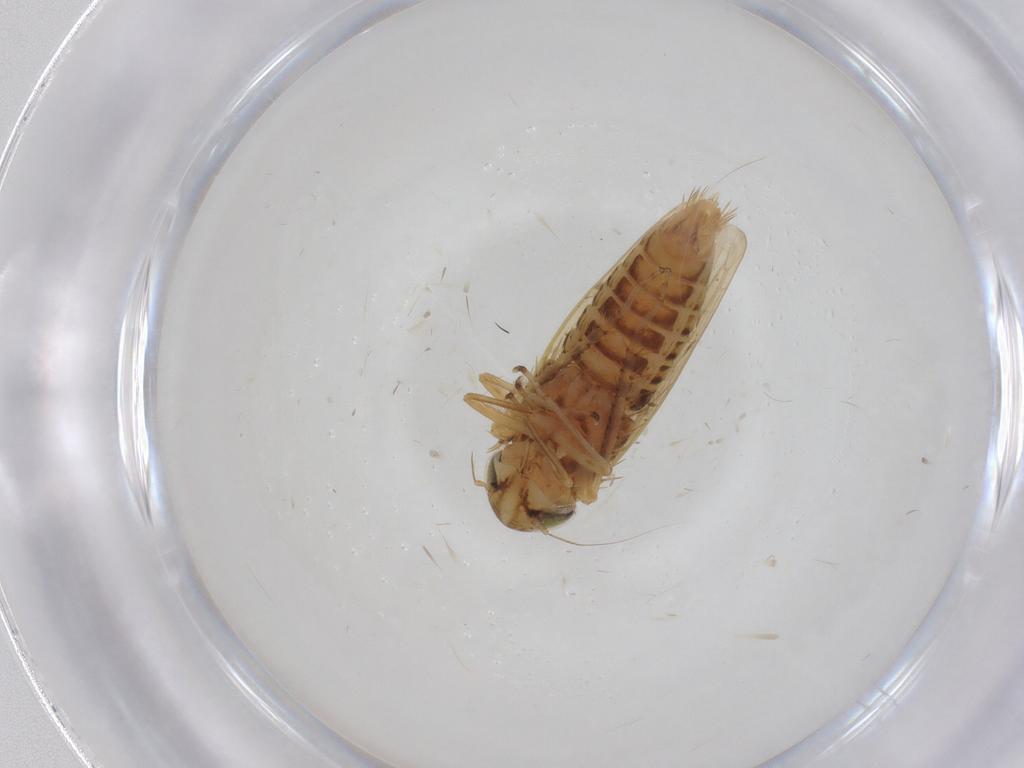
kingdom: Animalia
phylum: Arthropoda
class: Insecta
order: Hemiptera
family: Cicadellidae
